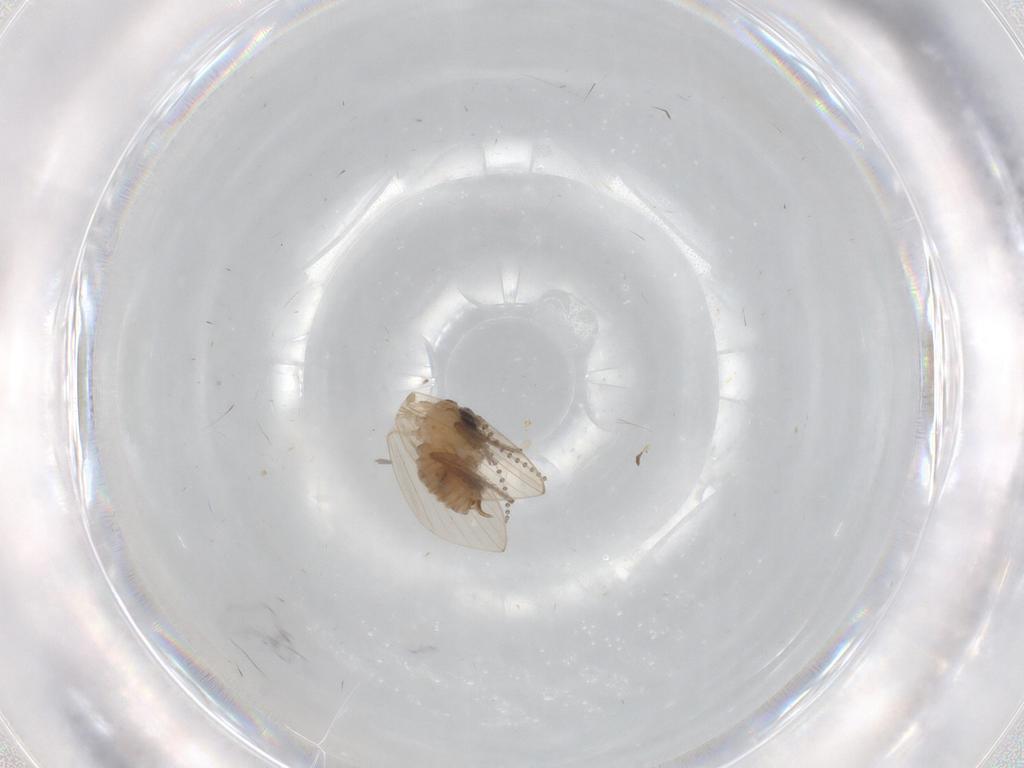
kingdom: Animalia
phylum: Arthropoda
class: Insecta
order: Diptera
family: Psychodidae
